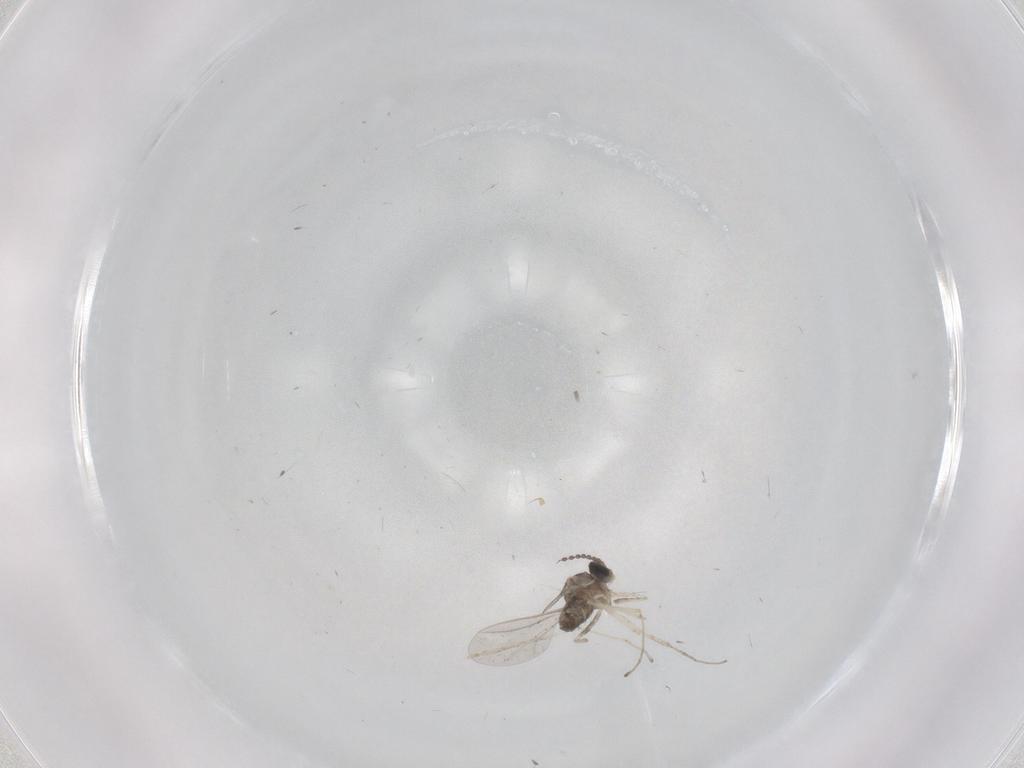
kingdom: Animalia
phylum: Arthropoda
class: Insecta
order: Diptera
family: Cecidomyiidae
